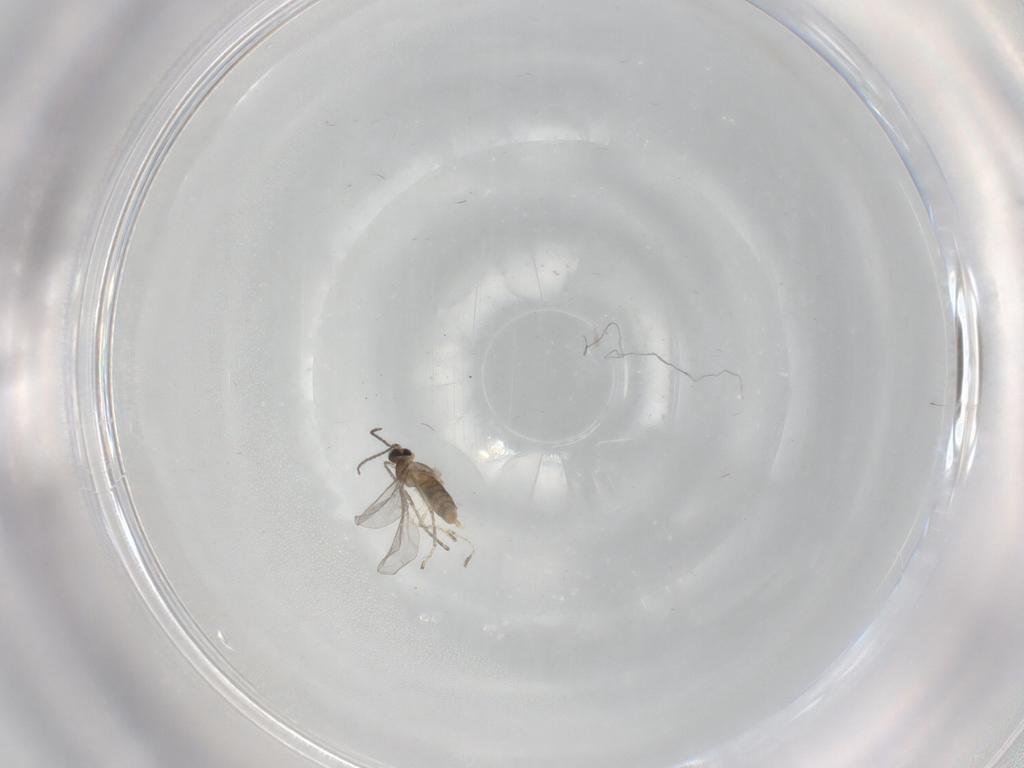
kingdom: Animalia
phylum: Arthropoda
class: Insecta
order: Diptera
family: Cecidomyiidae
